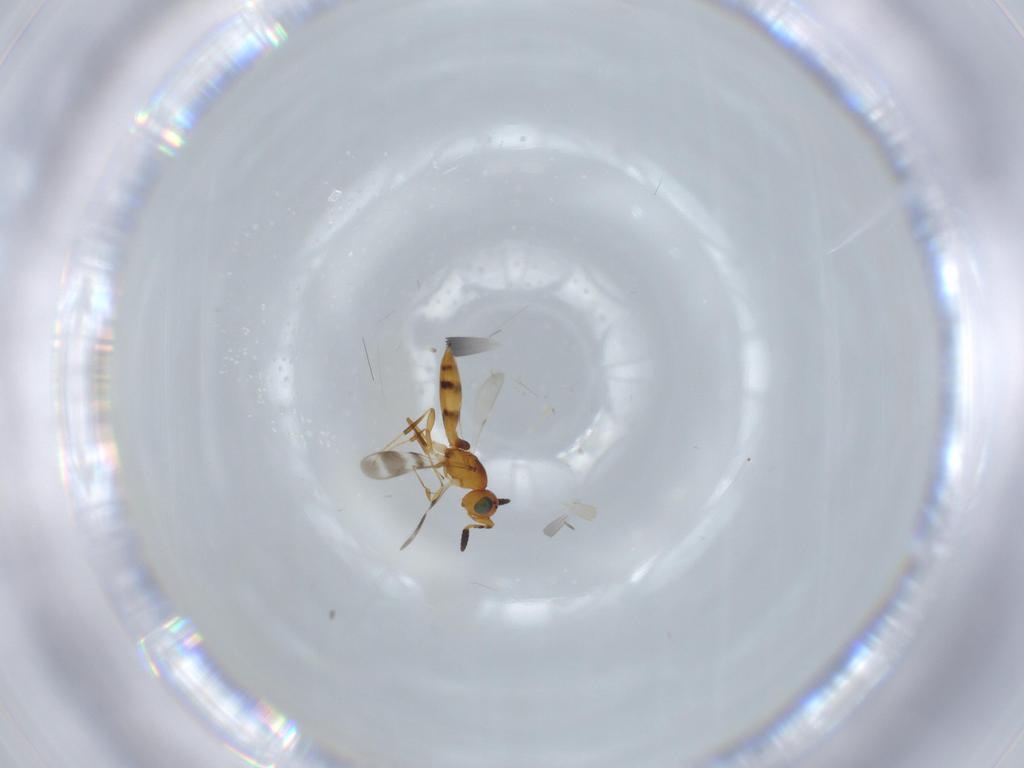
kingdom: Animalia
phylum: Arthropoda
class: Insecta
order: Hymenoptera
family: Scelionidae
